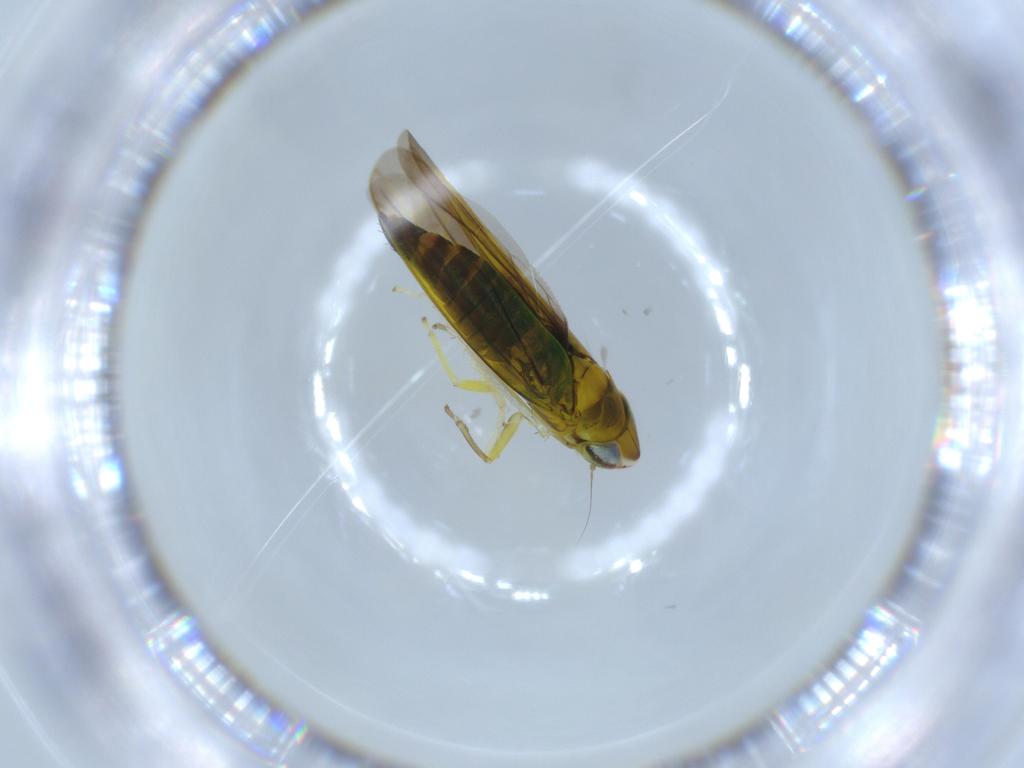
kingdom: Animalia
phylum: Arthropoda
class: Insecta
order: Hemiptera
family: Cicadellidae
